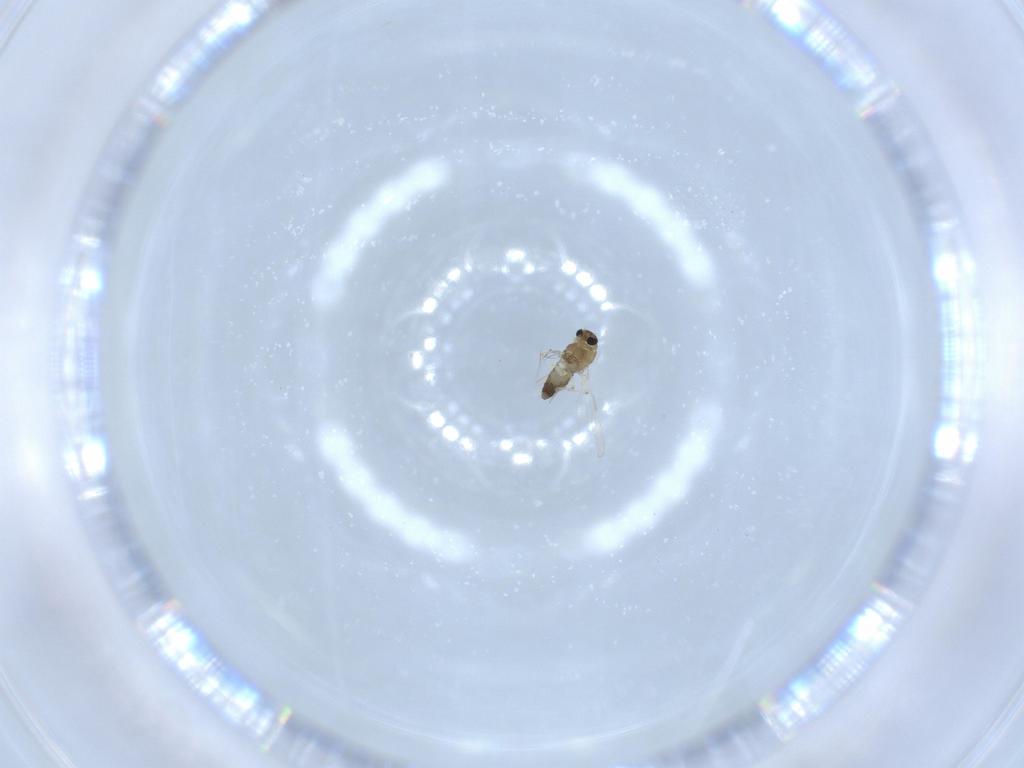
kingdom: Animalia
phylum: Arthropoda
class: Insecta
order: Diptera
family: Chironomidae
